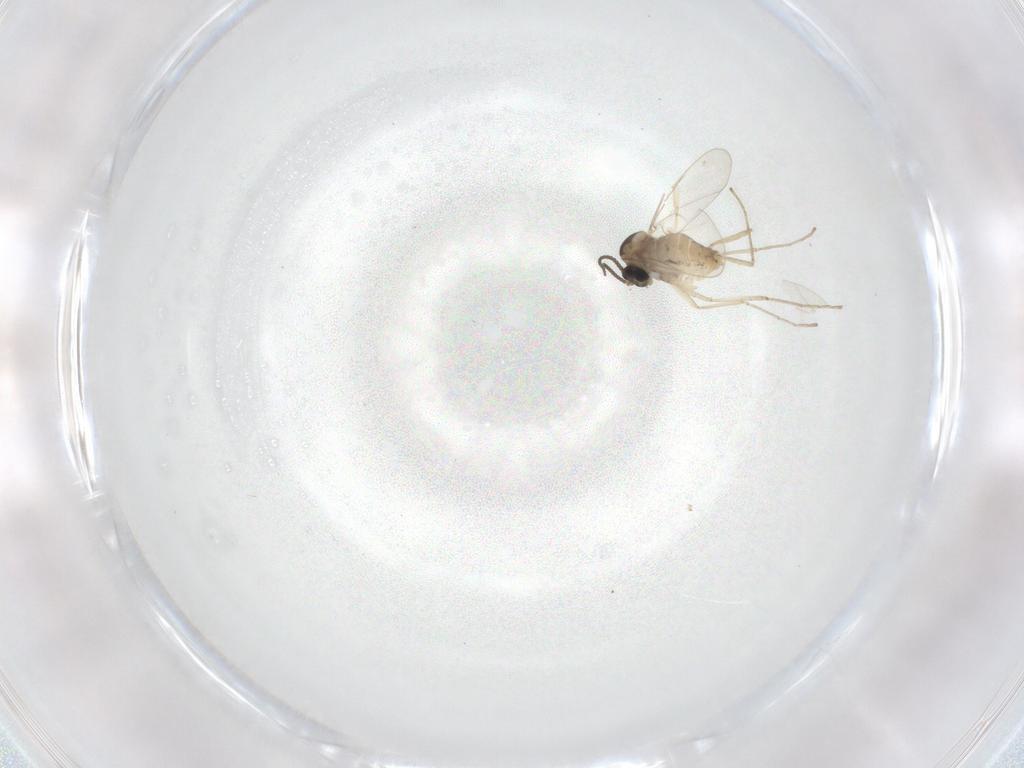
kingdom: Animalia
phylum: Arthropoda
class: Insecta
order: Diptera
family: Cecidomyiidae
